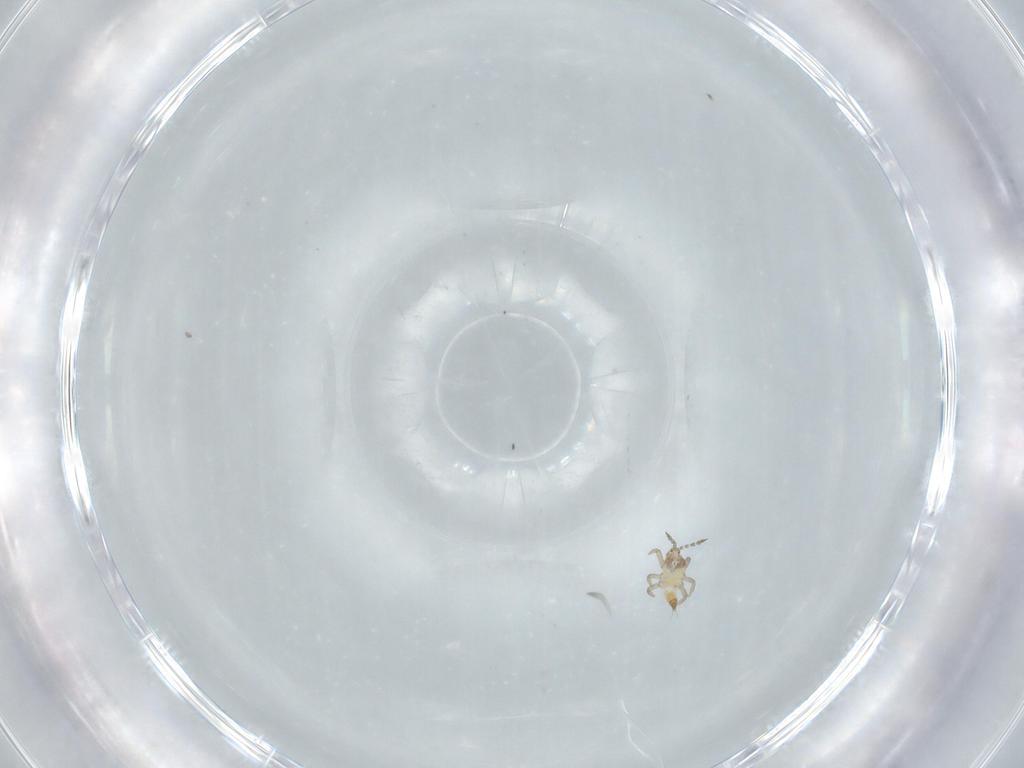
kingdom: Animalia
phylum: Arthropoda
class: Insecta
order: Thysanoptera
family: Phlaeothripidae
